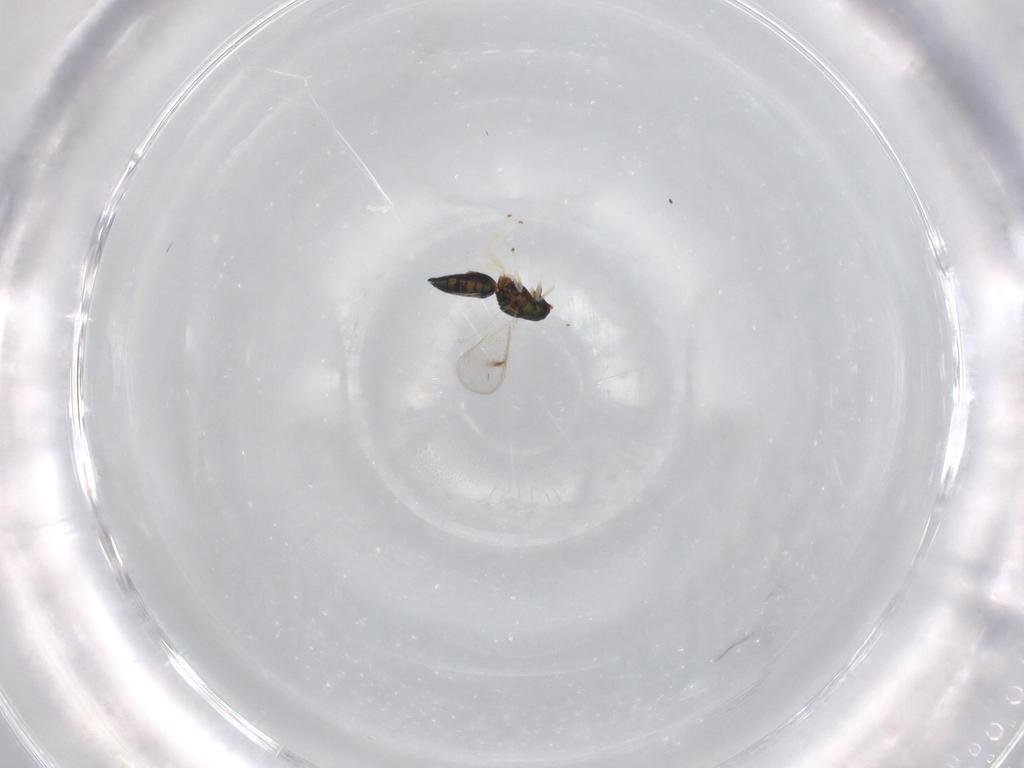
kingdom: Animalia
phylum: Arthropoda
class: Insecta
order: Hymenoptera
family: Eulophidae
